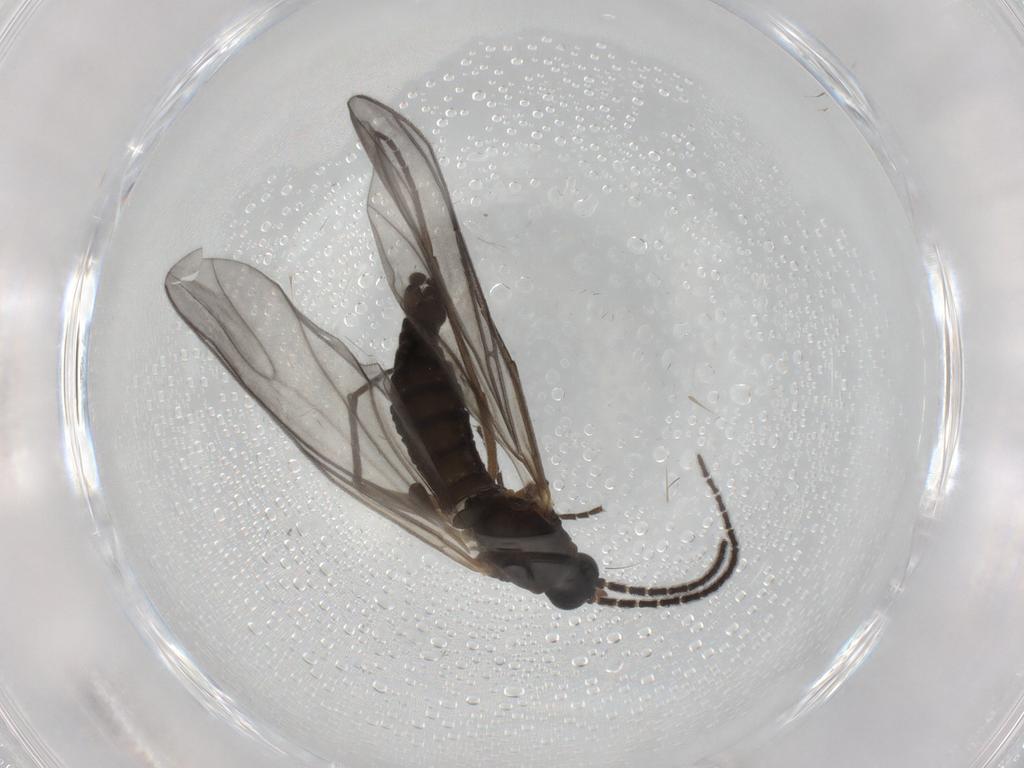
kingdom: Animalia
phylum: Arthropoda
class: Insecta
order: Diptera
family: Sciaridae
